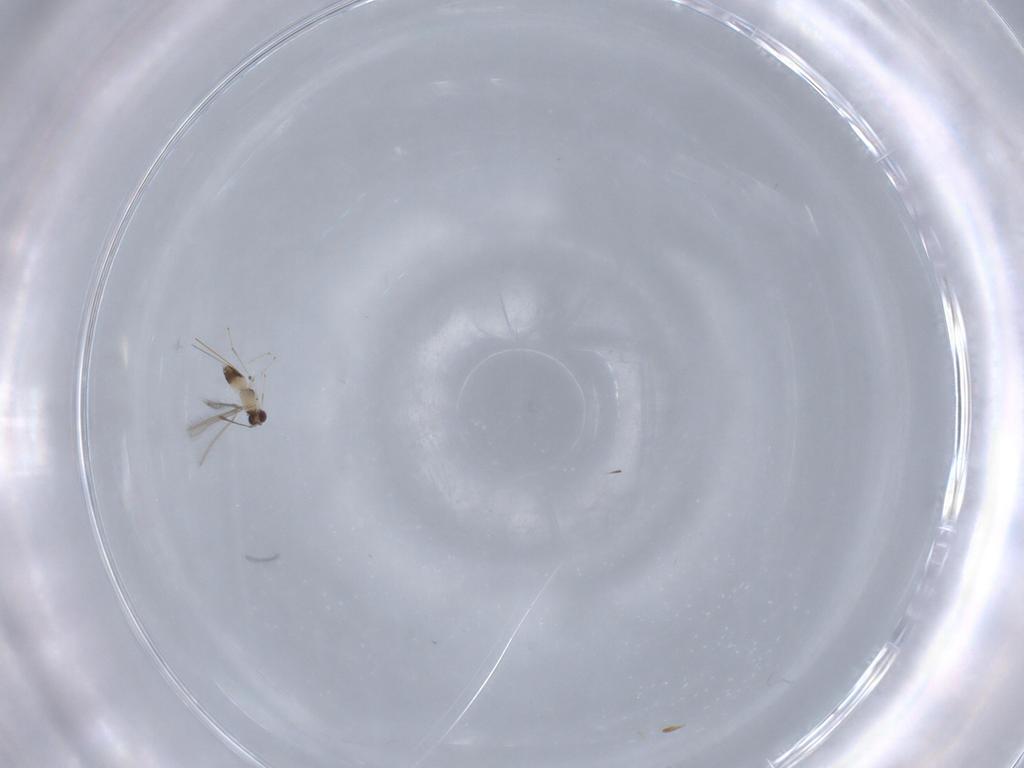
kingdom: Animalia
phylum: Arthropoda
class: Insecta
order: Hymenoptera
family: Mymaridae
